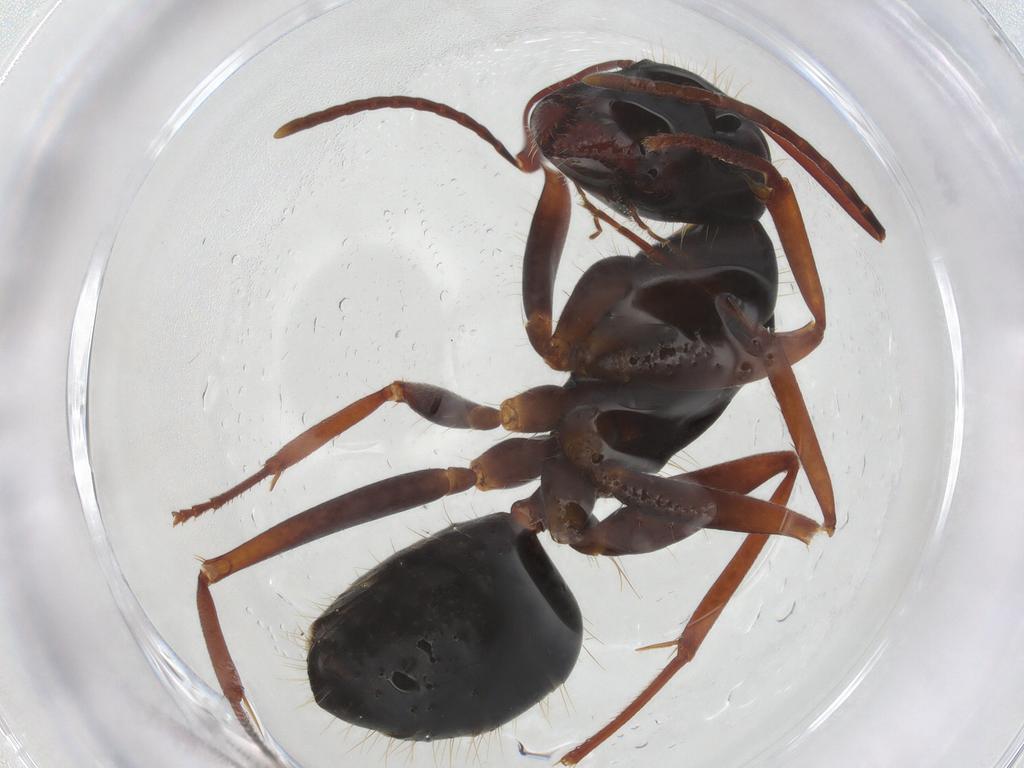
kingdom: Animalia
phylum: Arthropoda
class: Insecta
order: Hymenoptera
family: Formicidae
